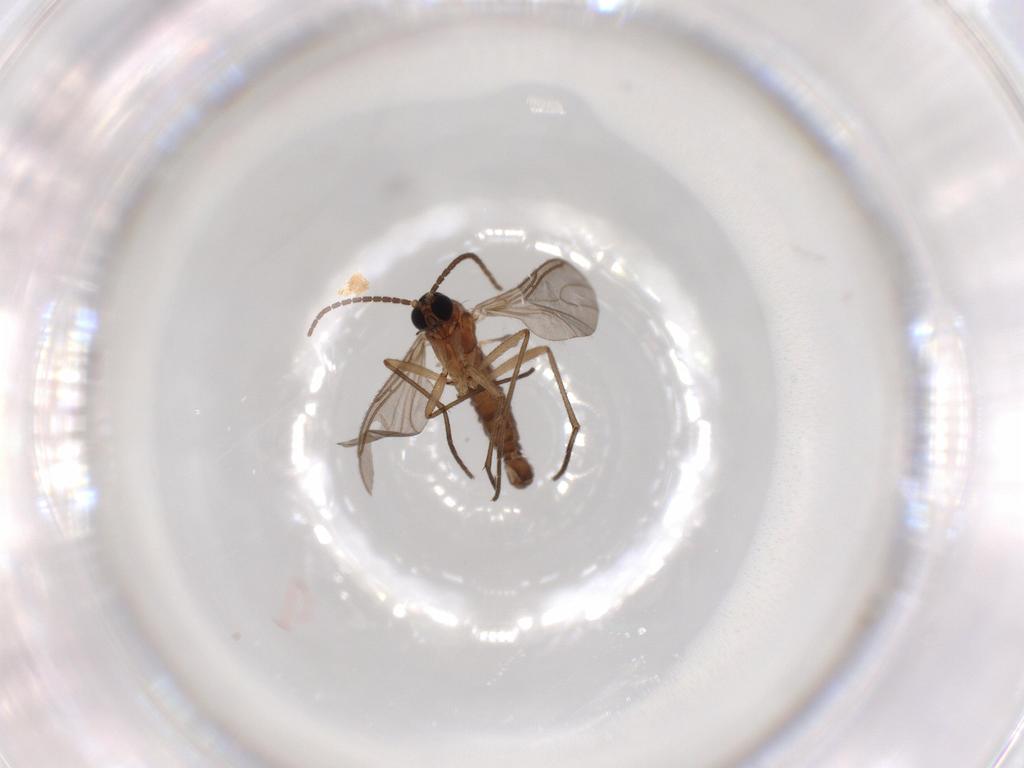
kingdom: Animalia
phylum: Arthropoda
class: Insecta
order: Diptera
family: Sciaridae
